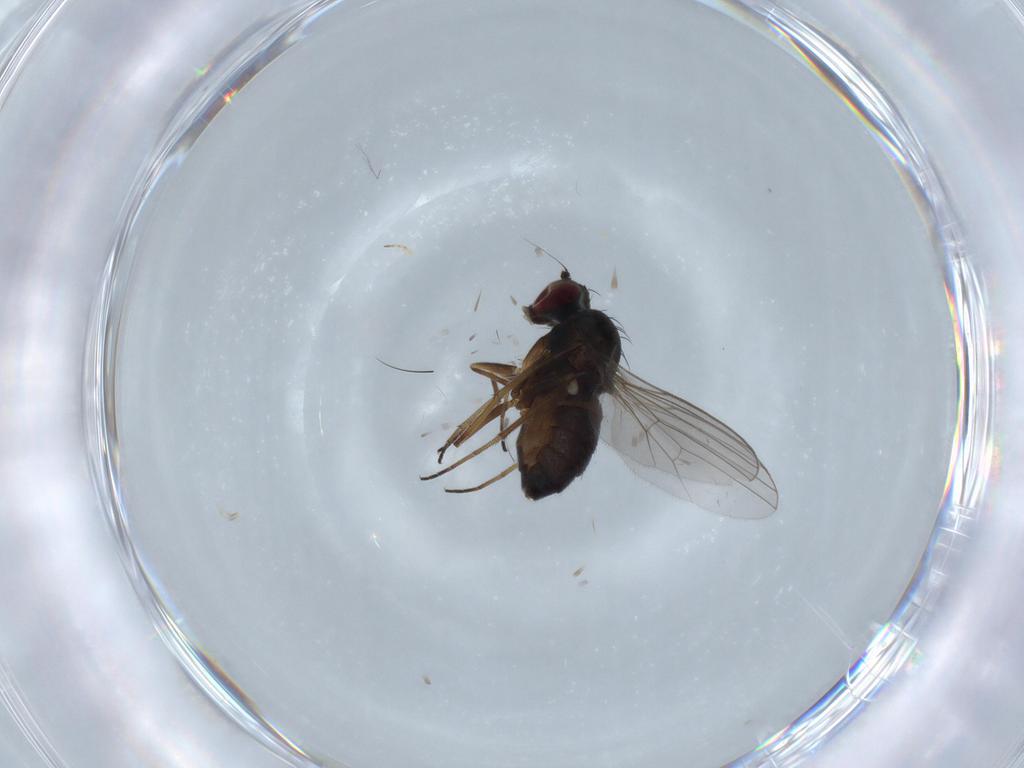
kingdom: Animalia
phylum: Arthropoda
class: Insecta
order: Diptera
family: Dolichopodidae
